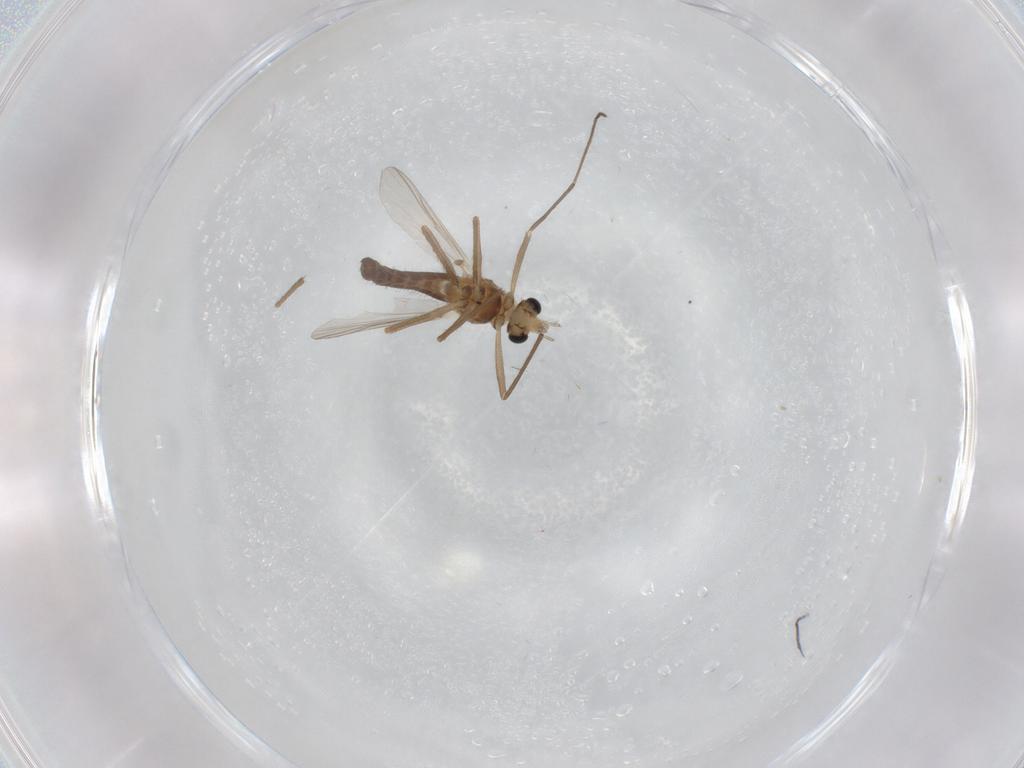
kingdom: Animalia
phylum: Arthropoda
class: Insecta
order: Diptera
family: Chironomidae
